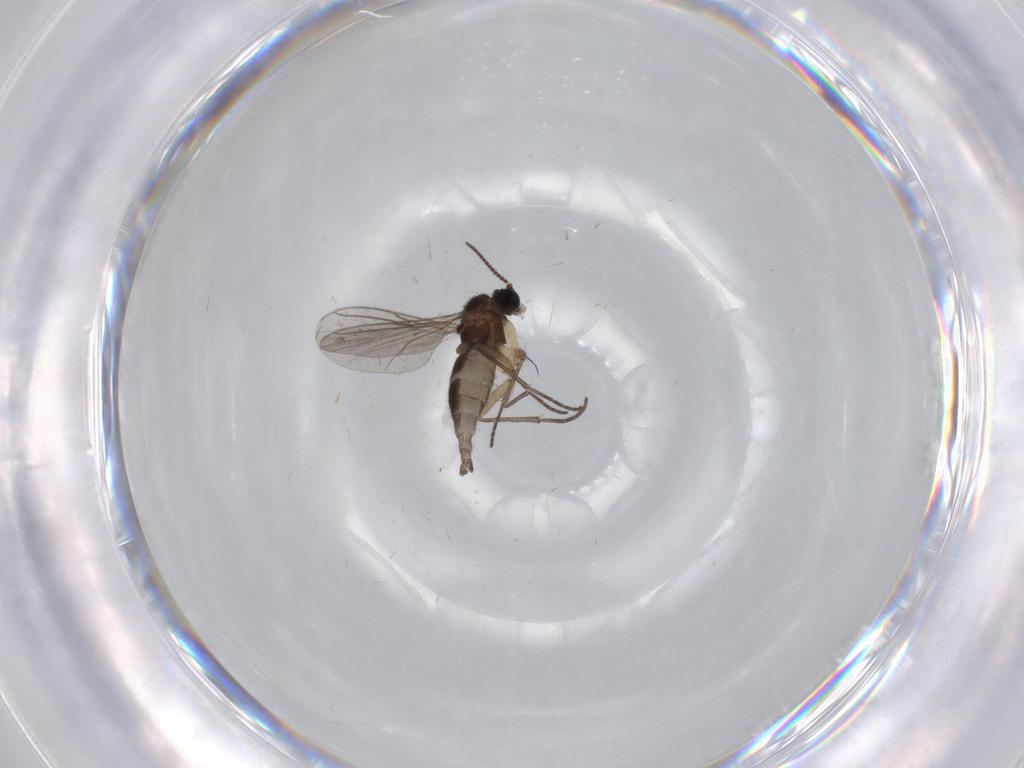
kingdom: Animalia
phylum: Arthropoda
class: Insecta
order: Diptera
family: Sciaridae
